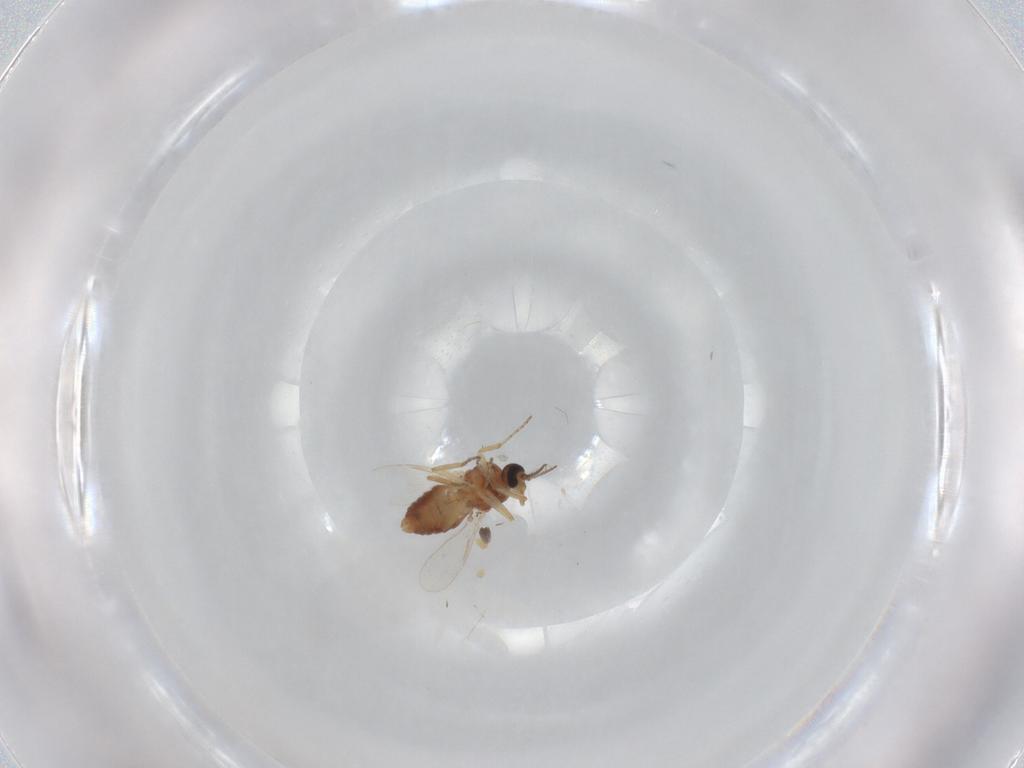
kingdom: Animalia
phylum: Arthropoda
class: Insecta
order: Diptera
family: Ceratopogonidae
